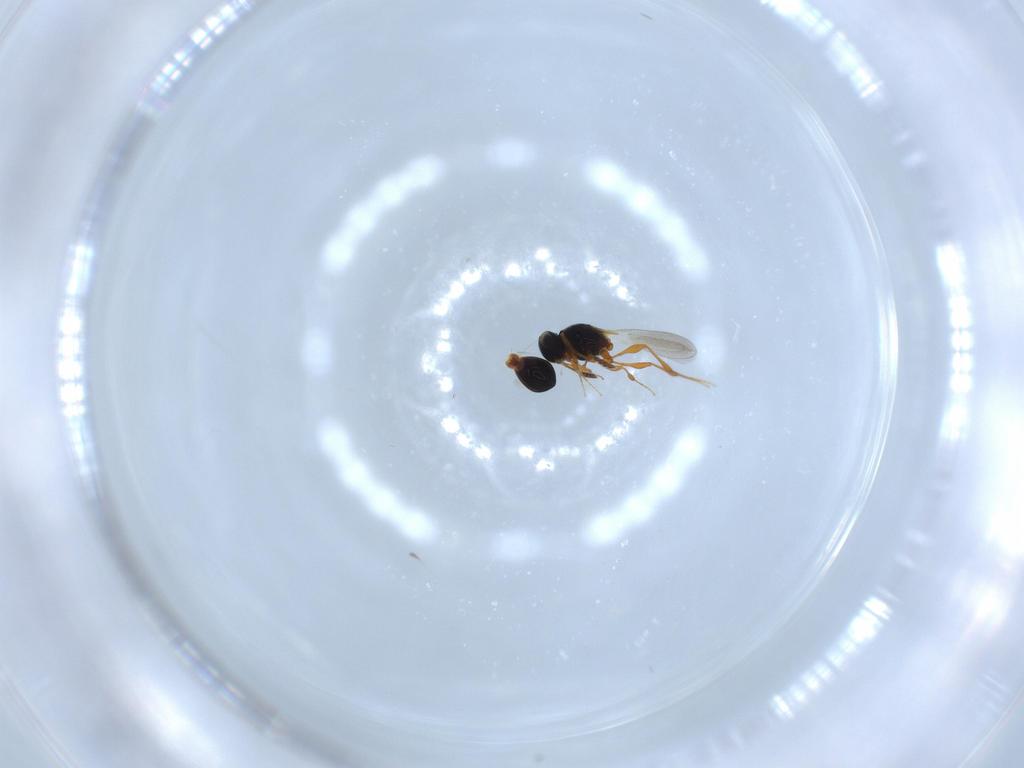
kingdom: Animalia
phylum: Arthropoda
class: Insecta
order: Hymenoptera
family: Platygastridae
